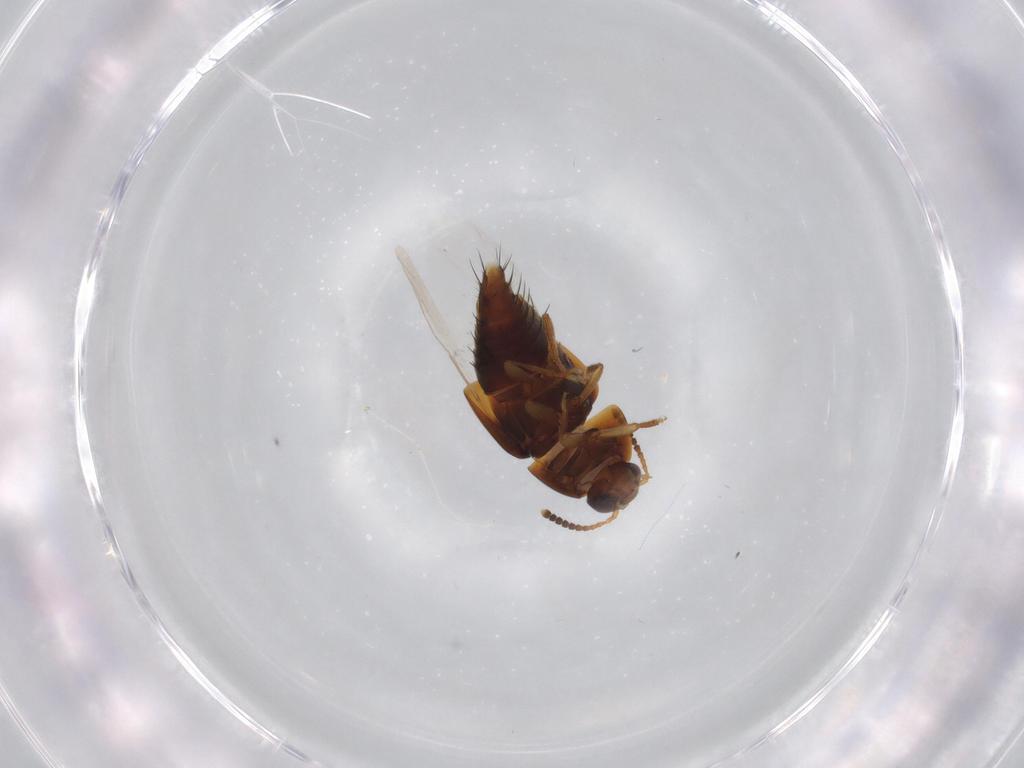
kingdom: Animalia
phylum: Arthropoda
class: Insecta
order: Coleoptera
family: Staphylinidae
